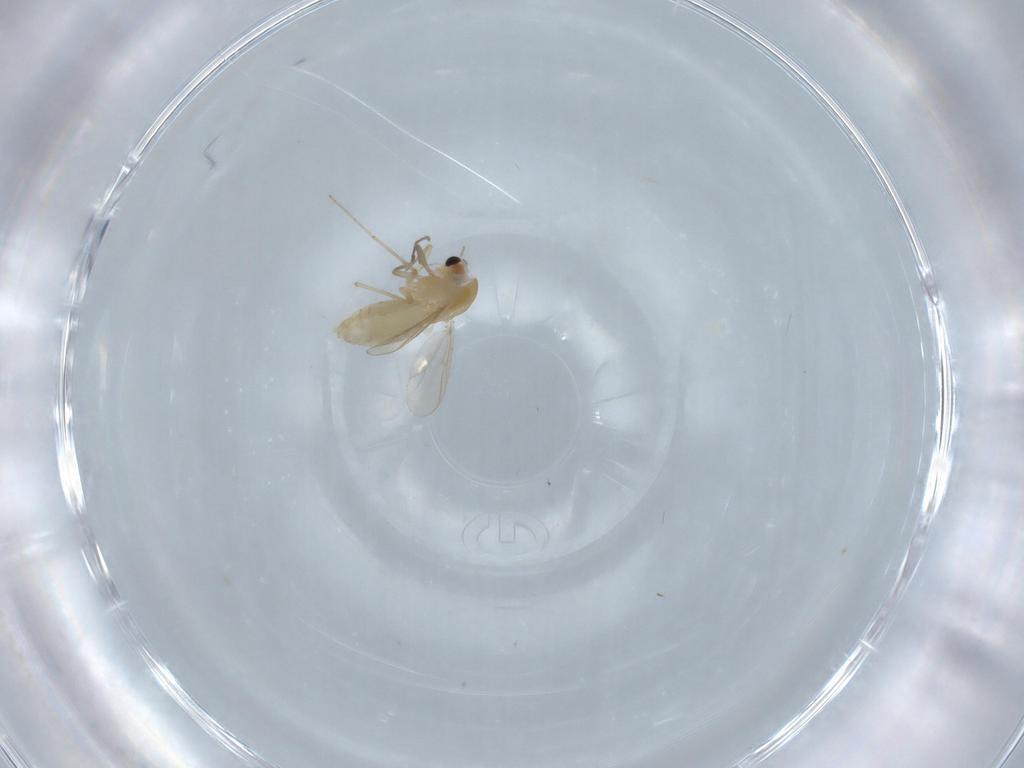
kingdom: Animalia
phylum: Arthropoda
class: Insecta
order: Diptera
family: Chironomidae
